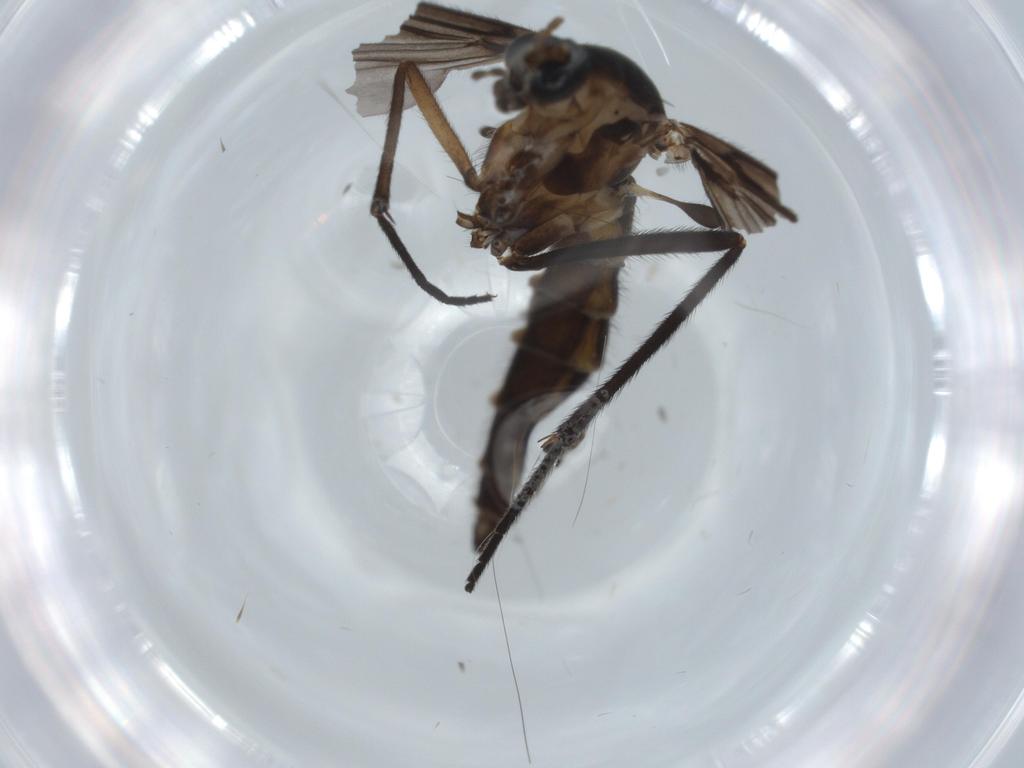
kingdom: Animalia
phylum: Arthropoda
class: Insecta
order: Diptera
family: Sciaridae
